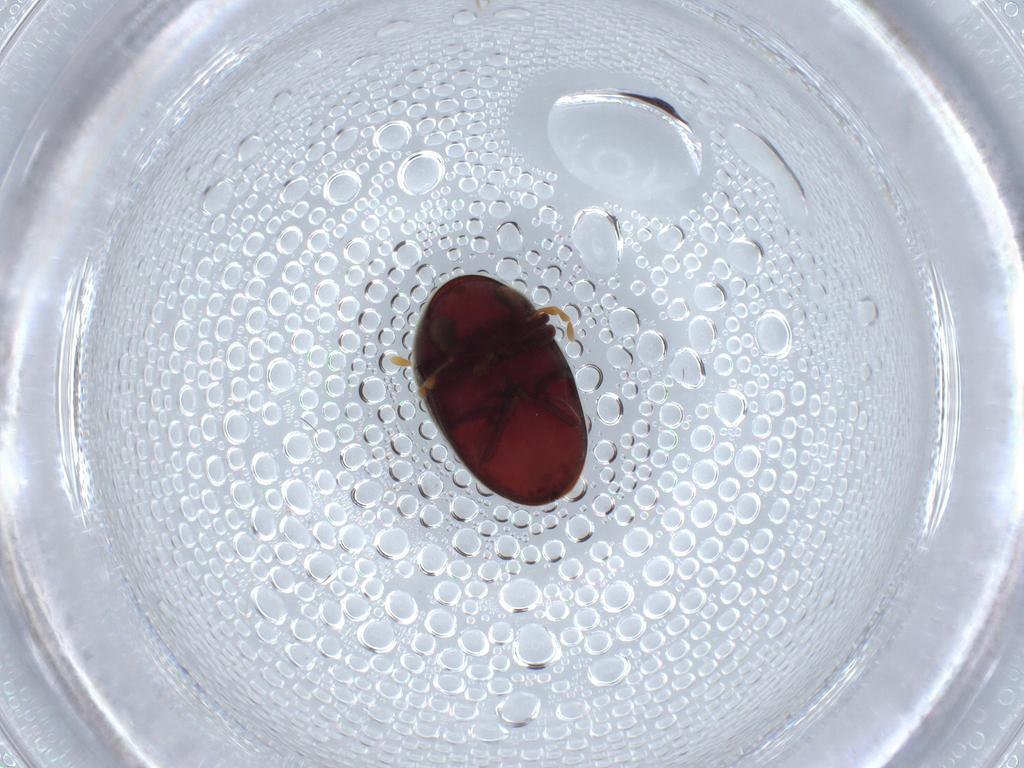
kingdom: Animalia
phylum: Arthropoda
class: Insecta
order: Coleoptera
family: Ptinidae
